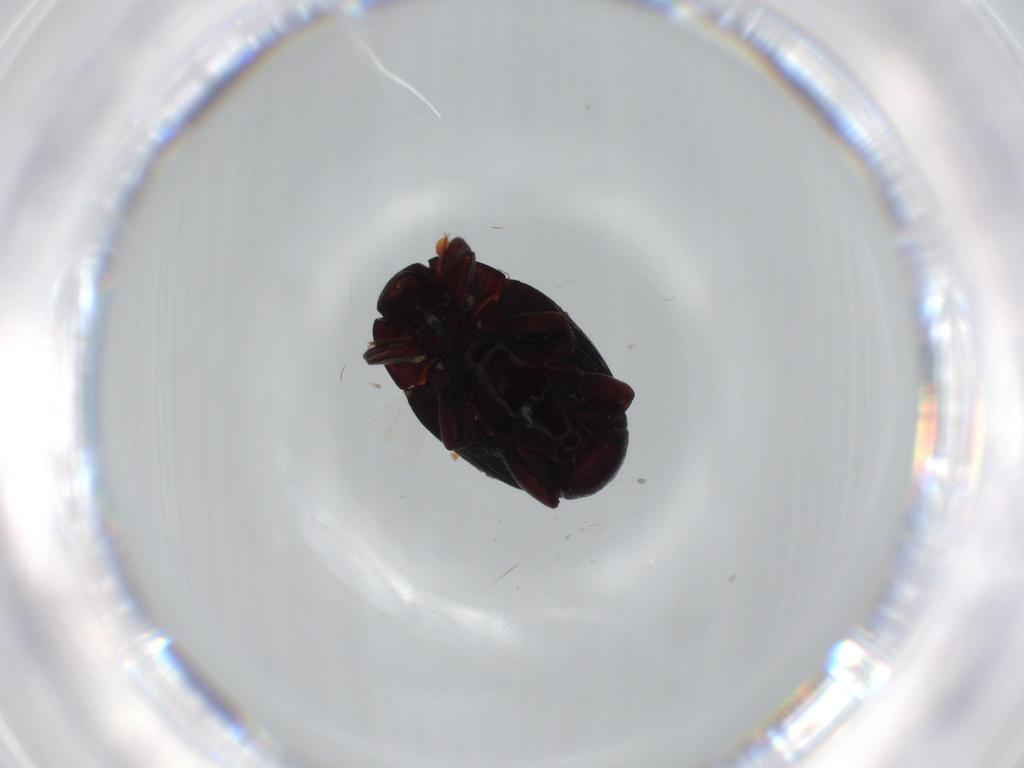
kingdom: Animalia
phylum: Arthropoda
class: Insecta
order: Coleoptera
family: Histeridae
